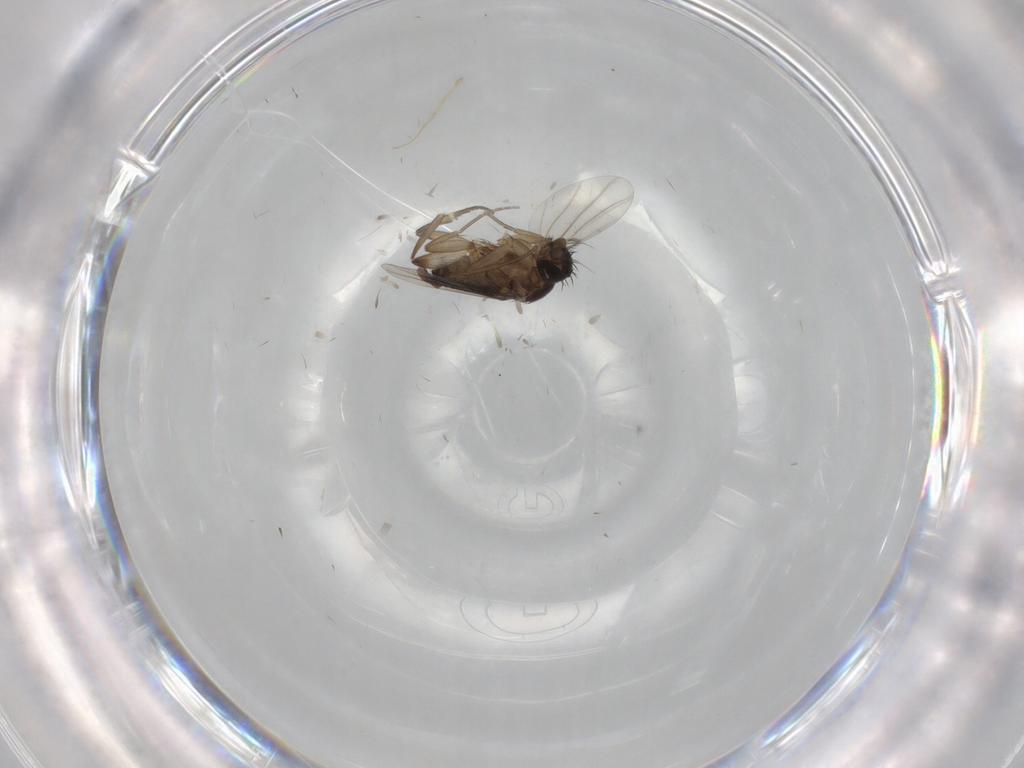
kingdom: Animalia
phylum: Arthropoda
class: Insecta
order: Diptera
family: Phoridae
